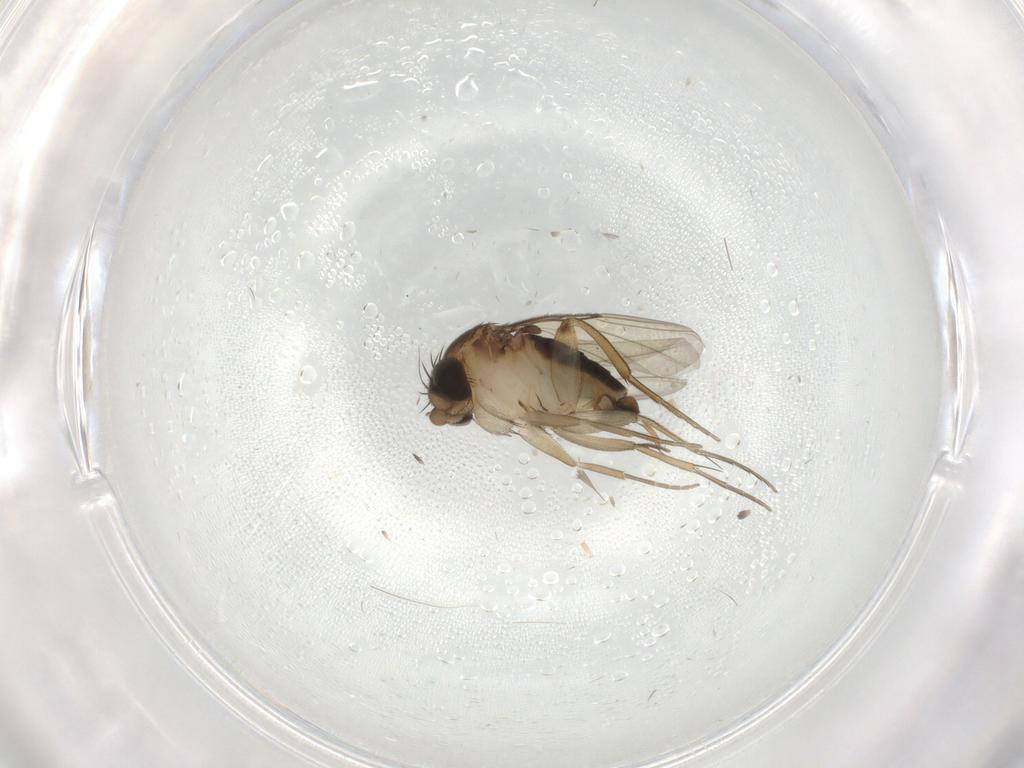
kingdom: Animalia
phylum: Arthropoda
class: Insecta
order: Diptera
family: Phoridae
